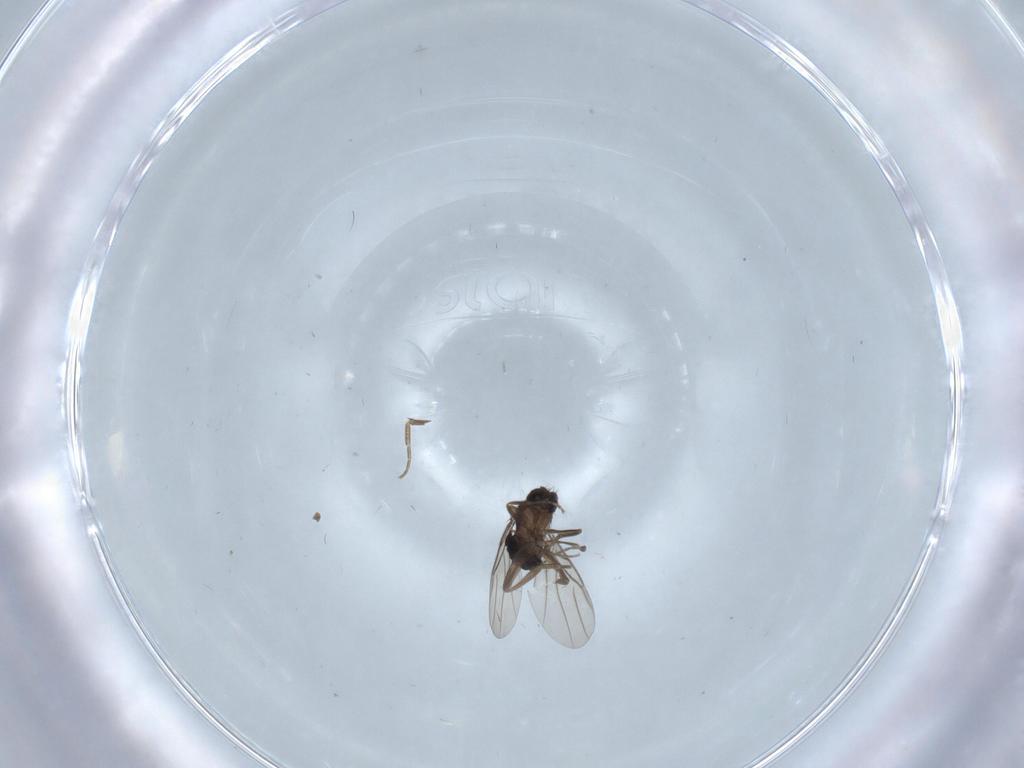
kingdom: Animalia
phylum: Arthropoda
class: Insecta
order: Diptera
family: Phoridae
